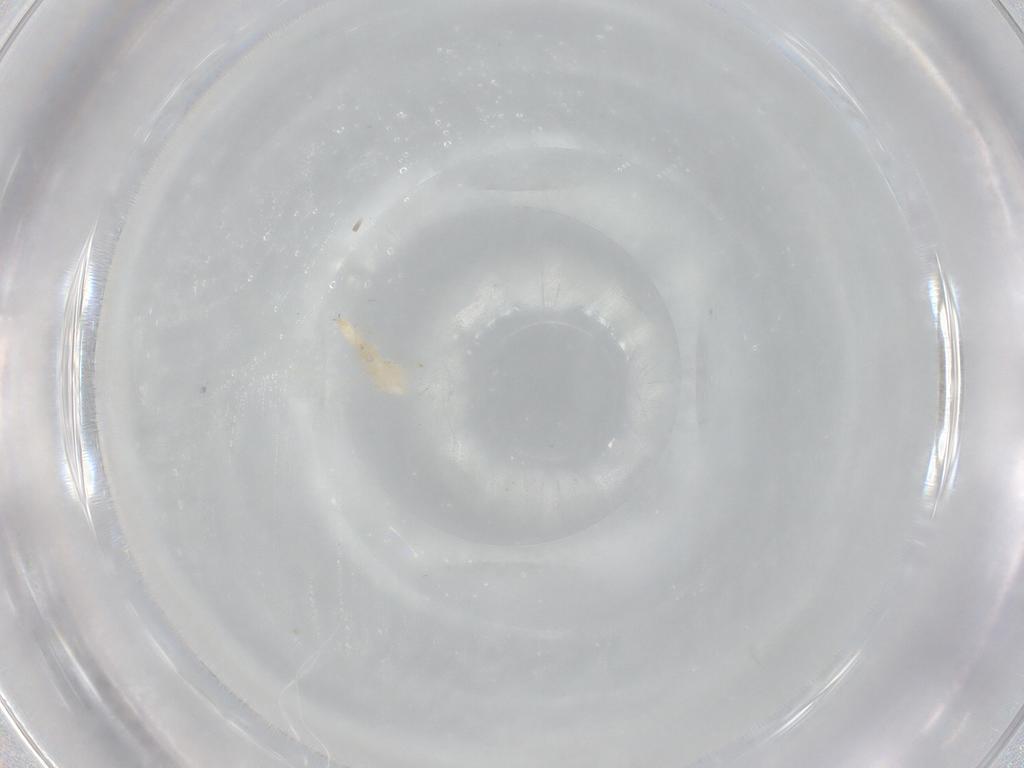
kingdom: Animalia
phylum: Arthropoda
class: Insecta
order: Diptera
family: Cecidomyiidae
